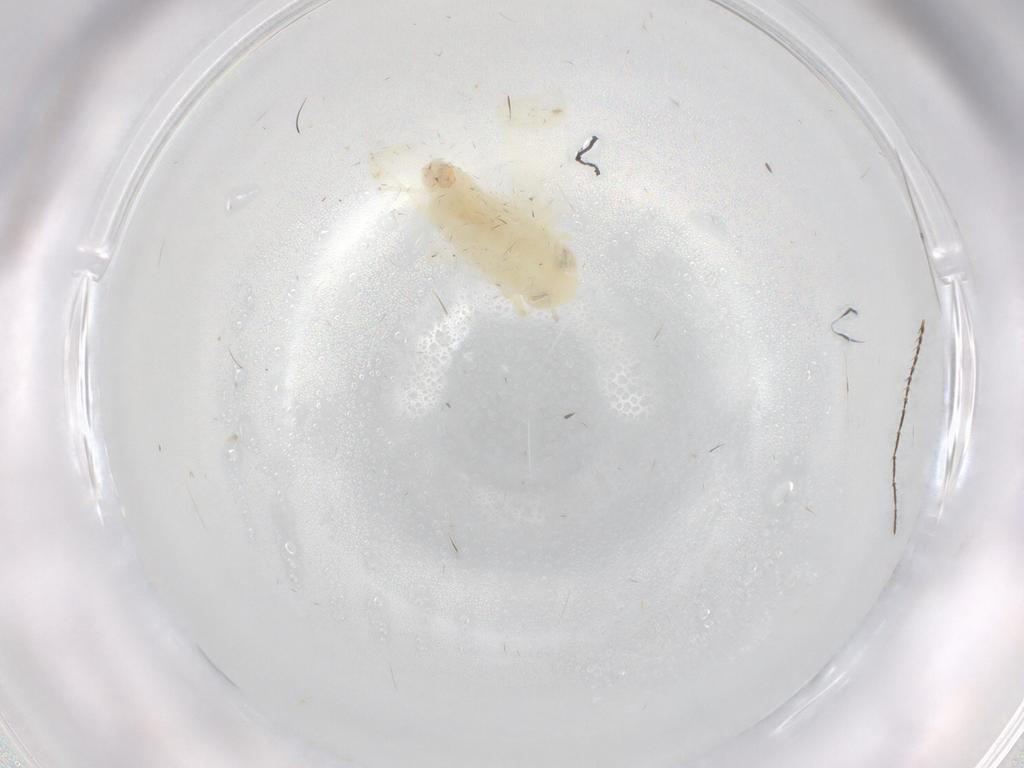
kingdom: Animalia
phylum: Arthropoda
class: Insecta
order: Hemiptera
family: Cicadellidae
